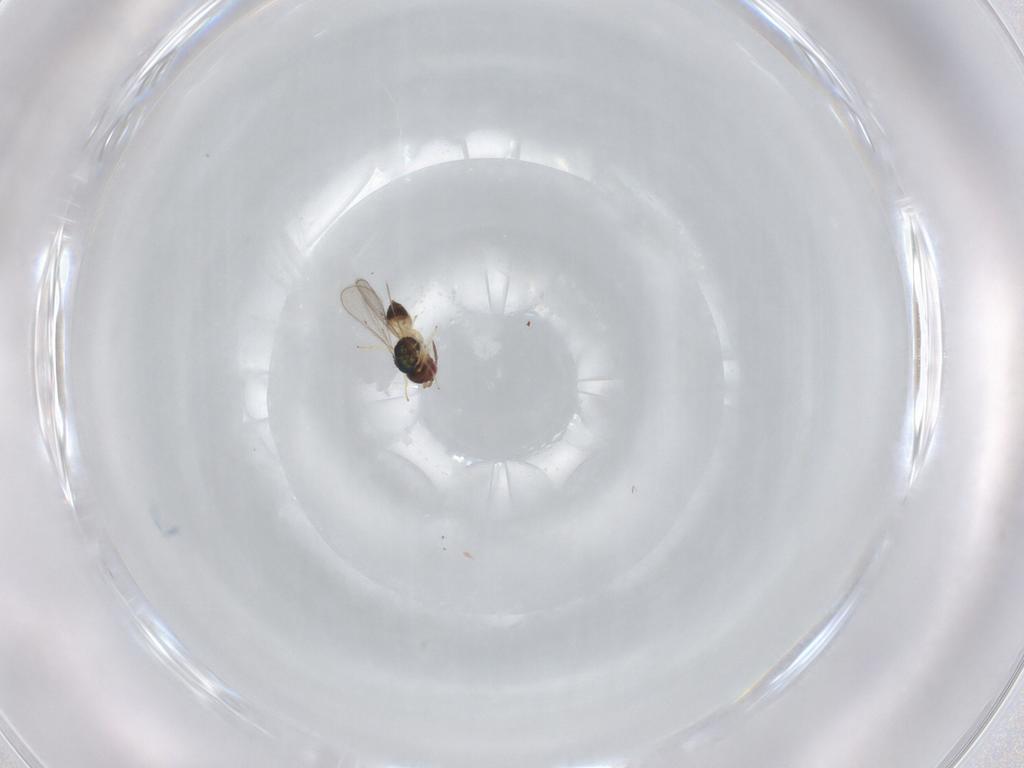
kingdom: Animalia
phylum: Arthropoda
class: Insecta
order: Hymenoptera
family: Eulophidae
